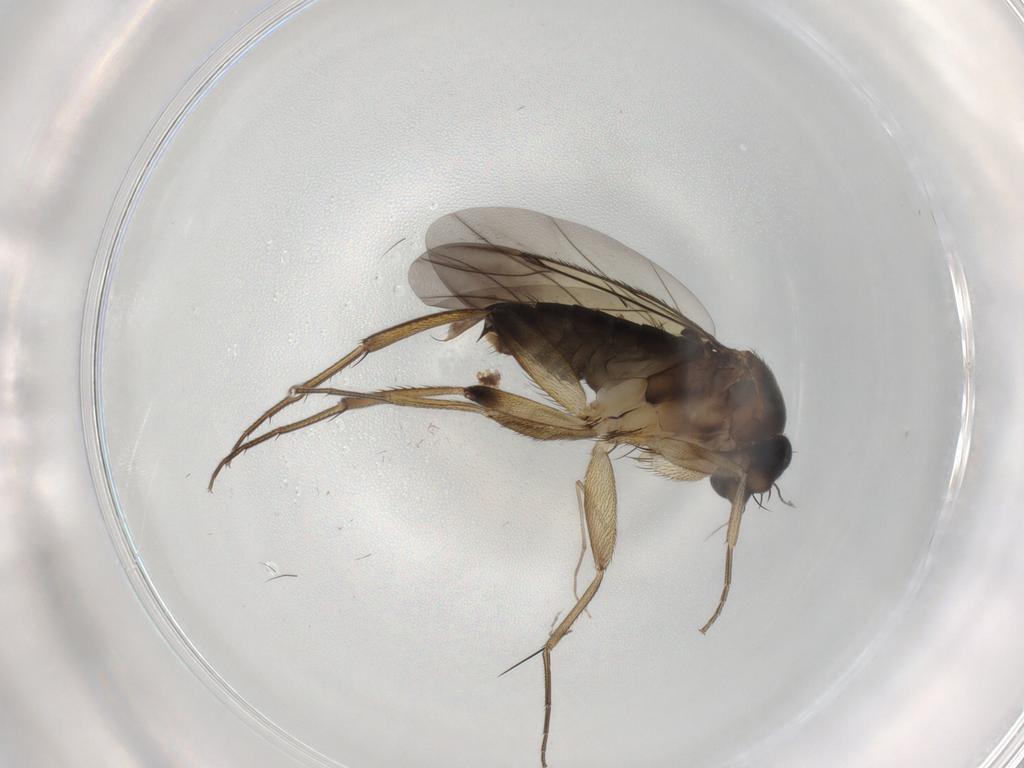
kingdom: Animalia
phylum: Arthropoda
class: Insecta
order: Diptera
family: Phoridae
